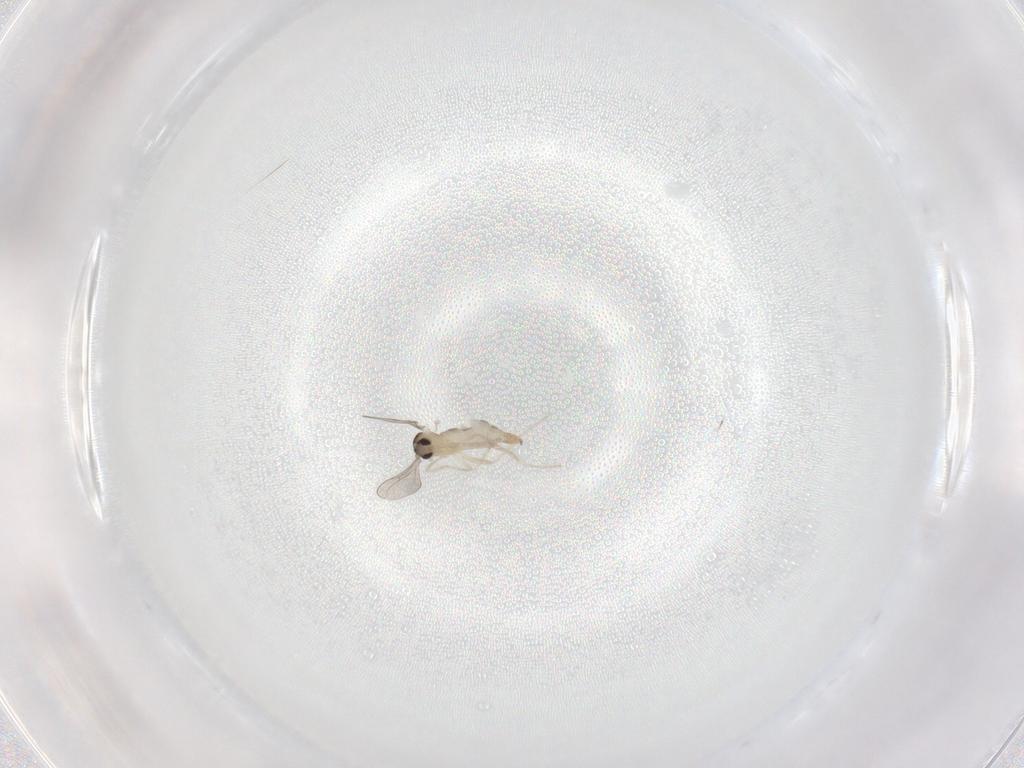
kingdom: Animalia
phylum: Arthropoda
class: Insecta
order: Diptera
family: Cecidomyiidae
